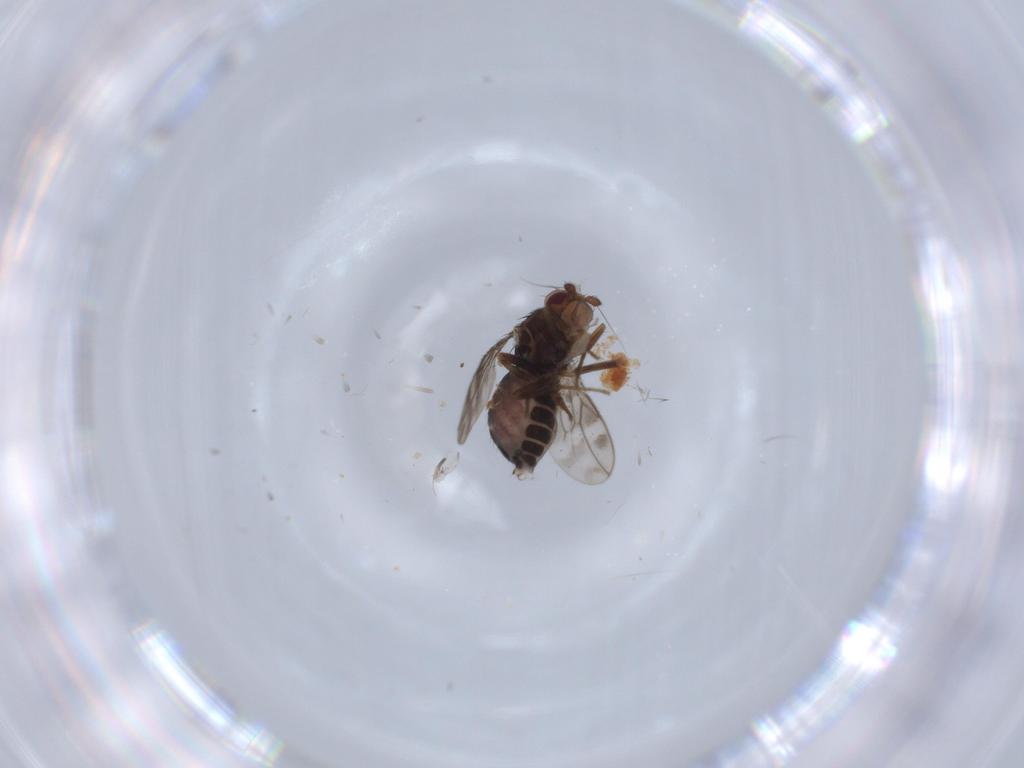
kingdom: Animalia
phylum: Arthropoda
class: Insecta
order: Diptera
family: Sphaeroceridae
